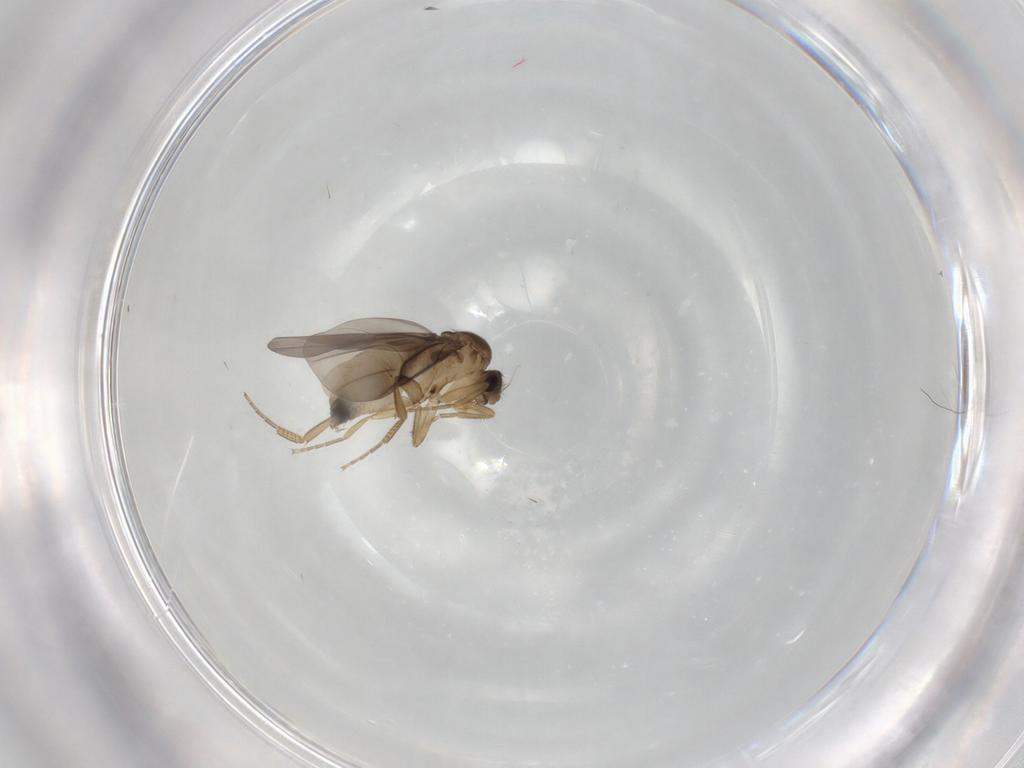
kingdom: Animalia
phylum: Arthropoda
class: Insecta
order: Diptera
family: Phoridae
